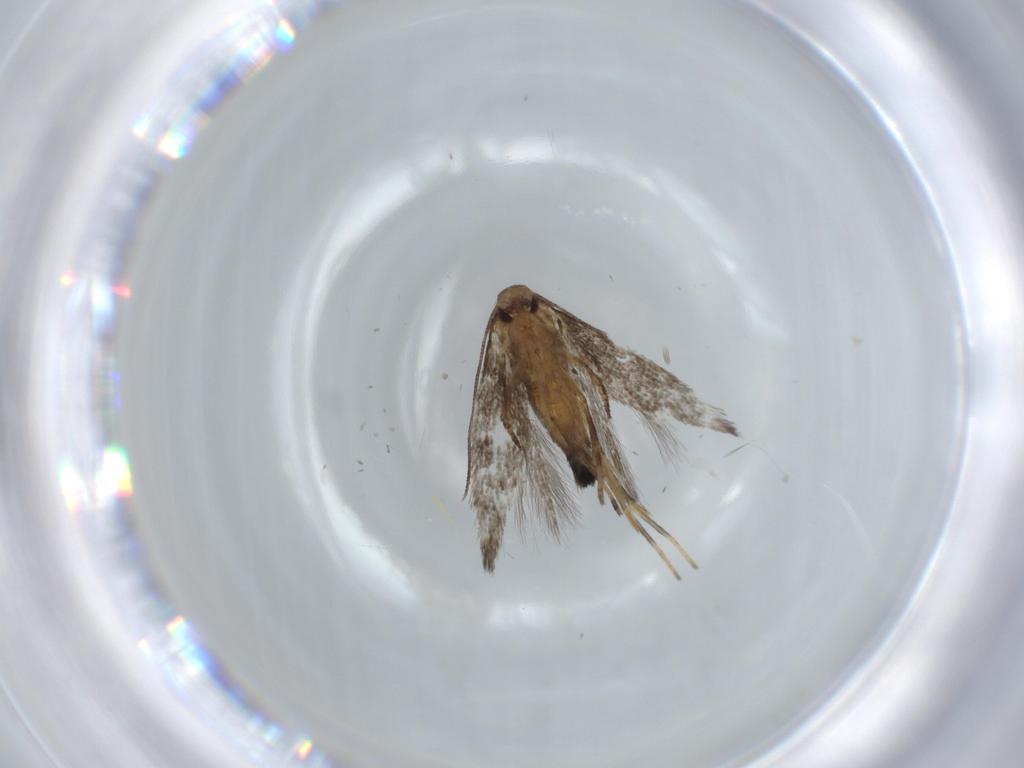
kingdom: Animalia
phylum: Arthropoda
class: Insecta
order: Lepidoptera
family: Cosmopterigidae
